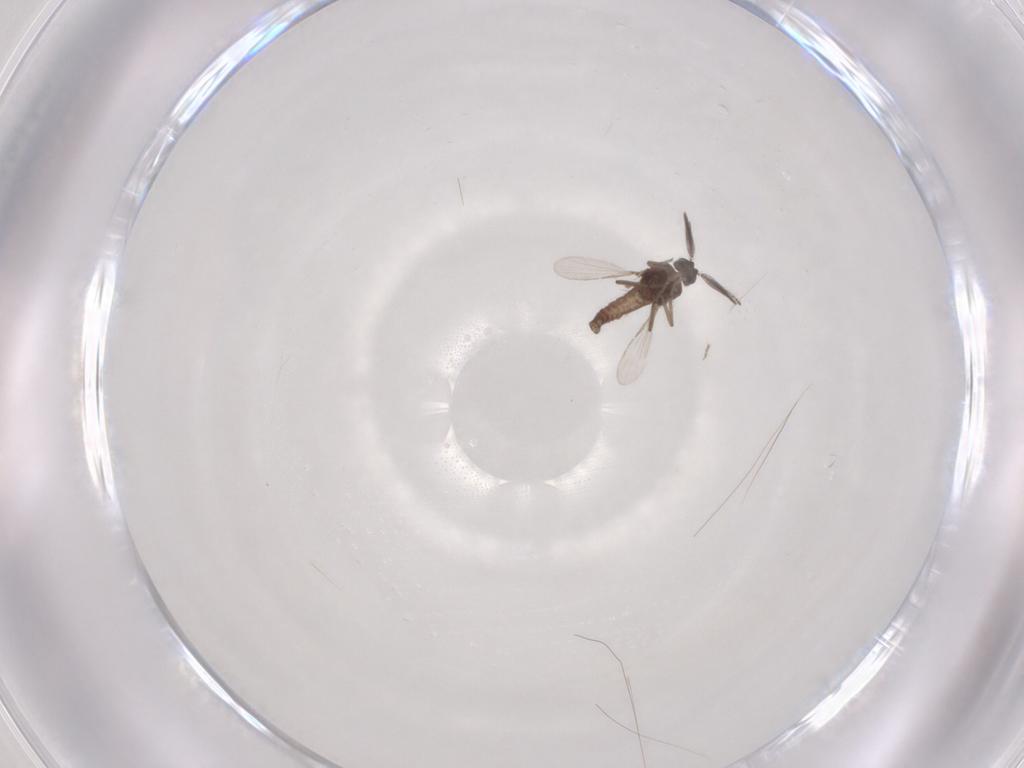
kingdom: Animalia
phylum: Arthropoda
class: Insecta
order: Diptera
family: Ceratopogonidae
